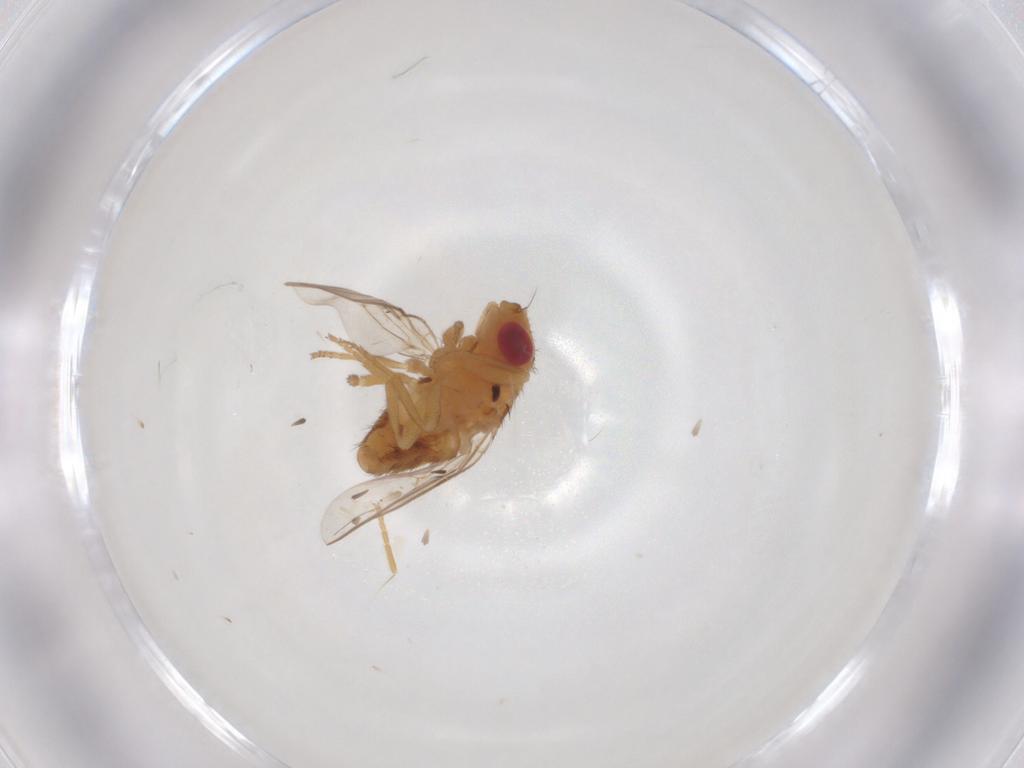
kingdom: Animalia
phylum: Arthropoda
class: Insecta
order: Diptera
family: Chloropidae
